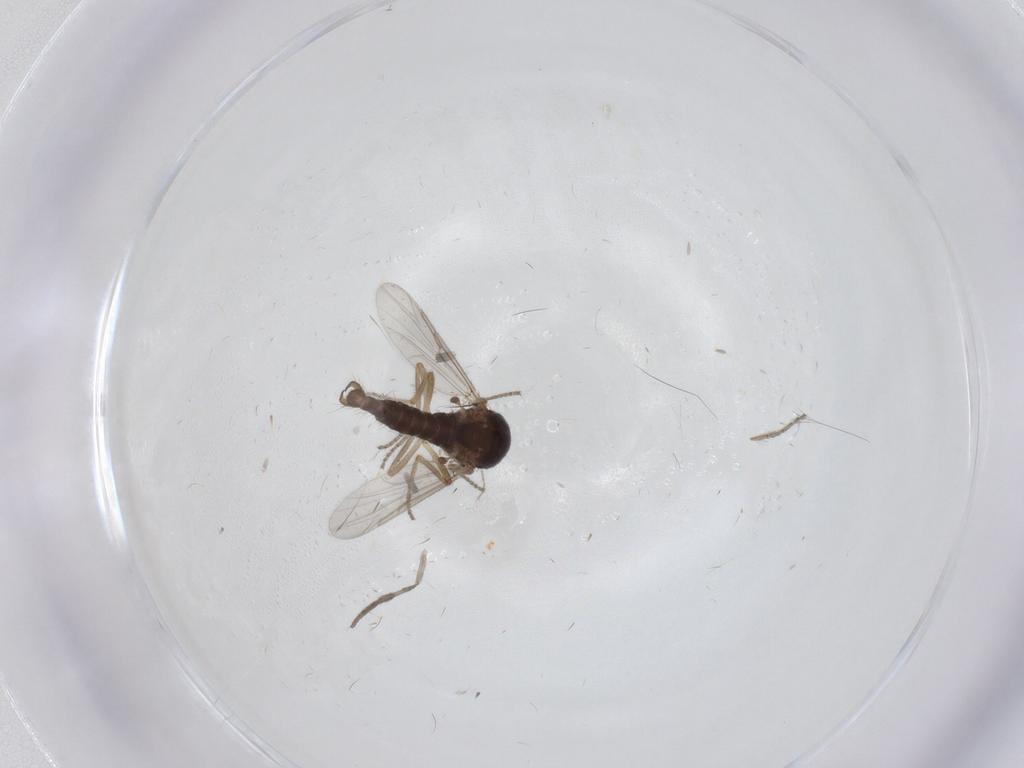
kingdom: Animalia
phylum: Arthropoda
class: Insecta
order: Diptera
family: Ceratopogonidae
